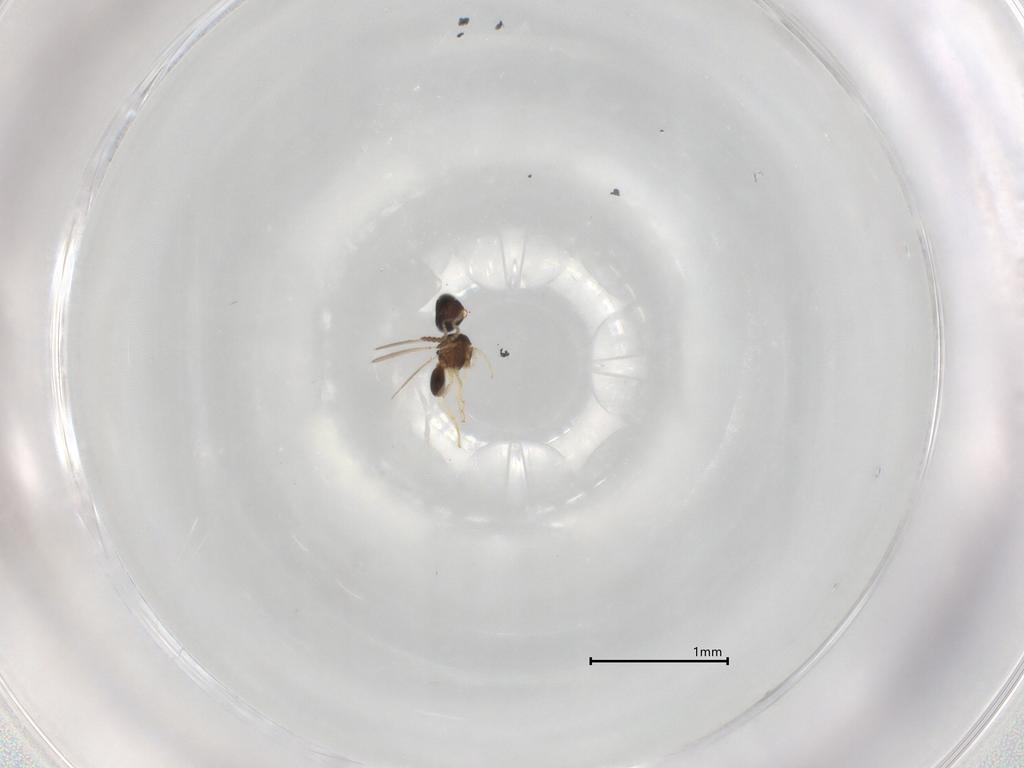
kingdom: Animalia
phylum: Arthropoda
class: Insecta
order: Hymenoptera
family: Scelionidae
